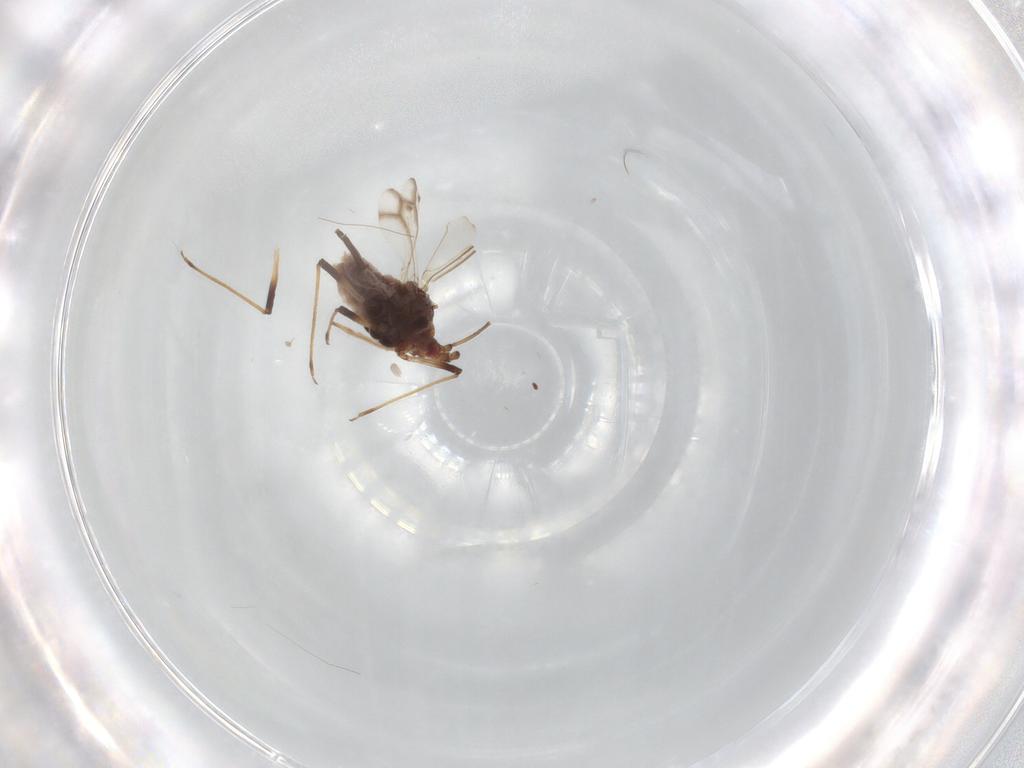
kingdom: Animalia
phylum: Arthropoda
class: Insecta
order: Hemiptera
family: Aphididae
